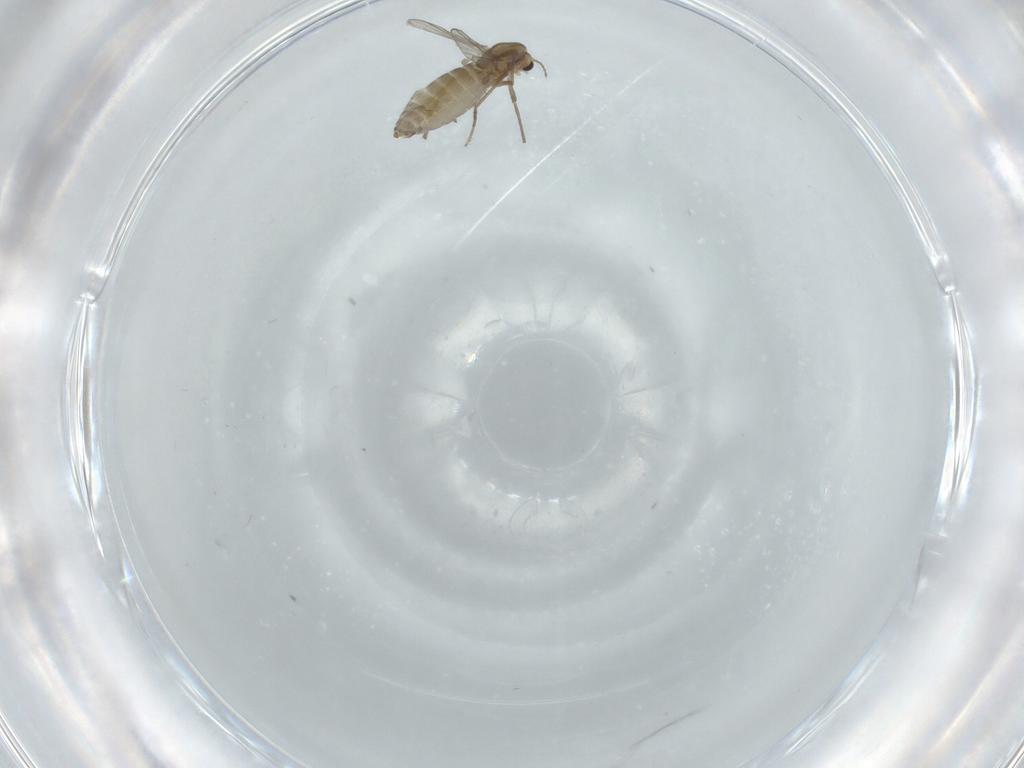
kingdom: Animalia
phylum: Arthropoda
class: Insecta
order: Diptera
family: Chironomidae
